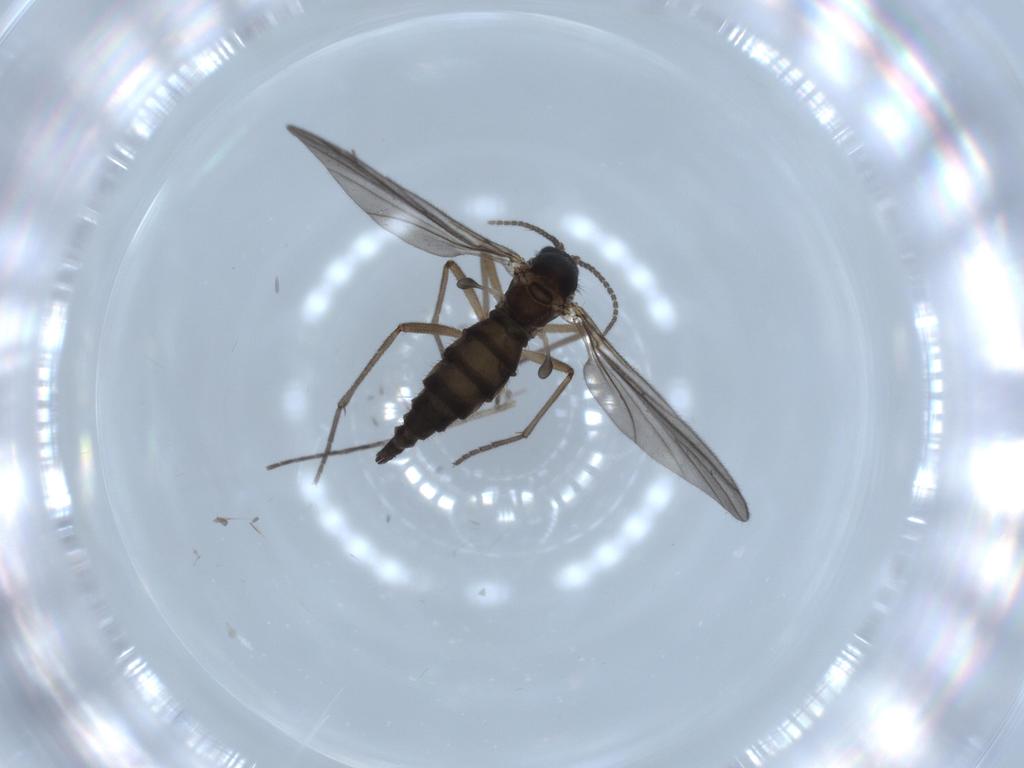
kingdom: Animalia
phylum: Arthropoda
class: Insecta
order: Diptera
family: Sciaridae
